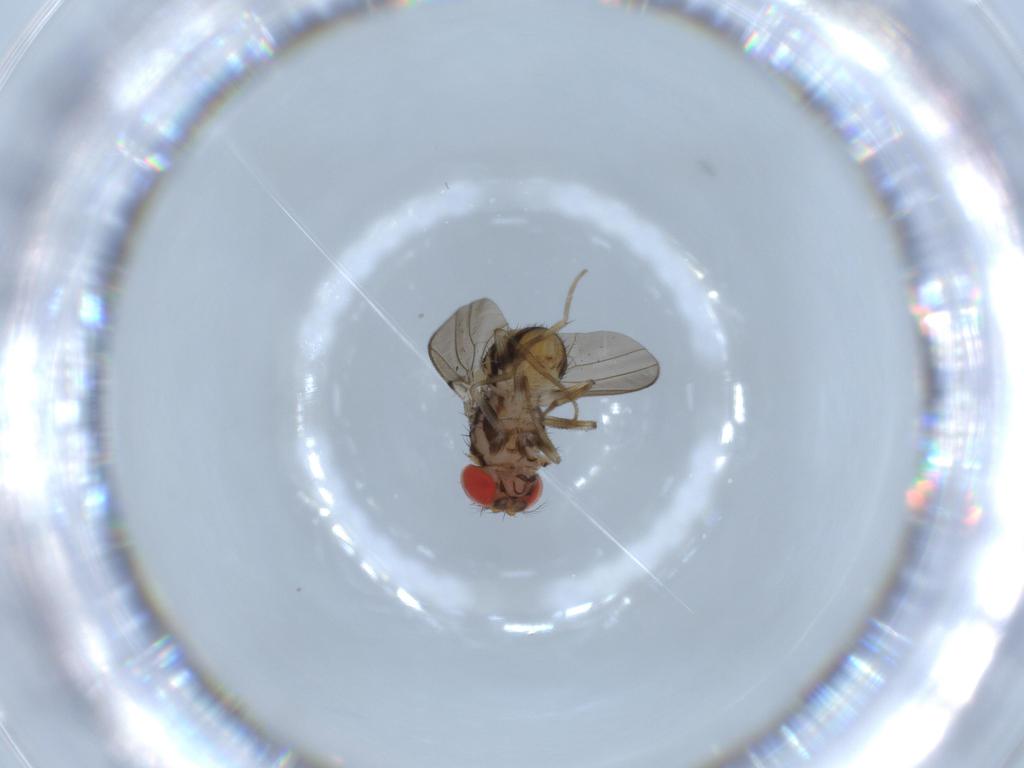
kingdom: Animalia
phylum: Arthropoda
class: Insecta
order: Diptera
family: Drosophilidae
